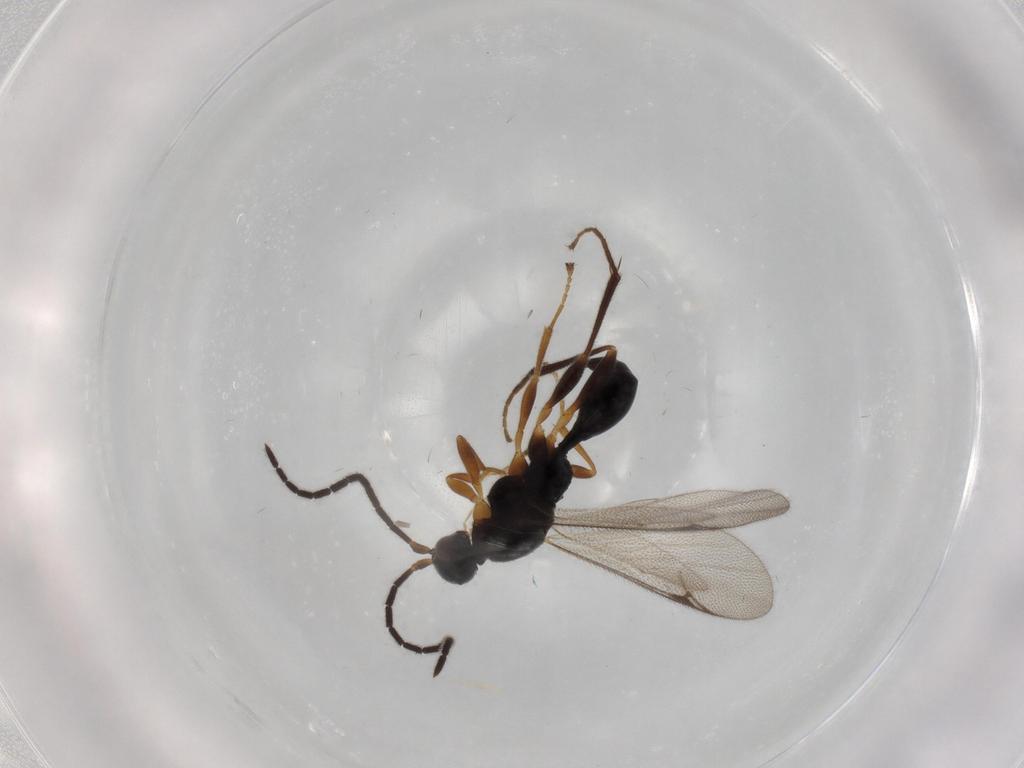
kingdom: Animalia
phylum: Arthropoda
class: Insecta
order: Hymenoptera
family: Proctotrupidae
